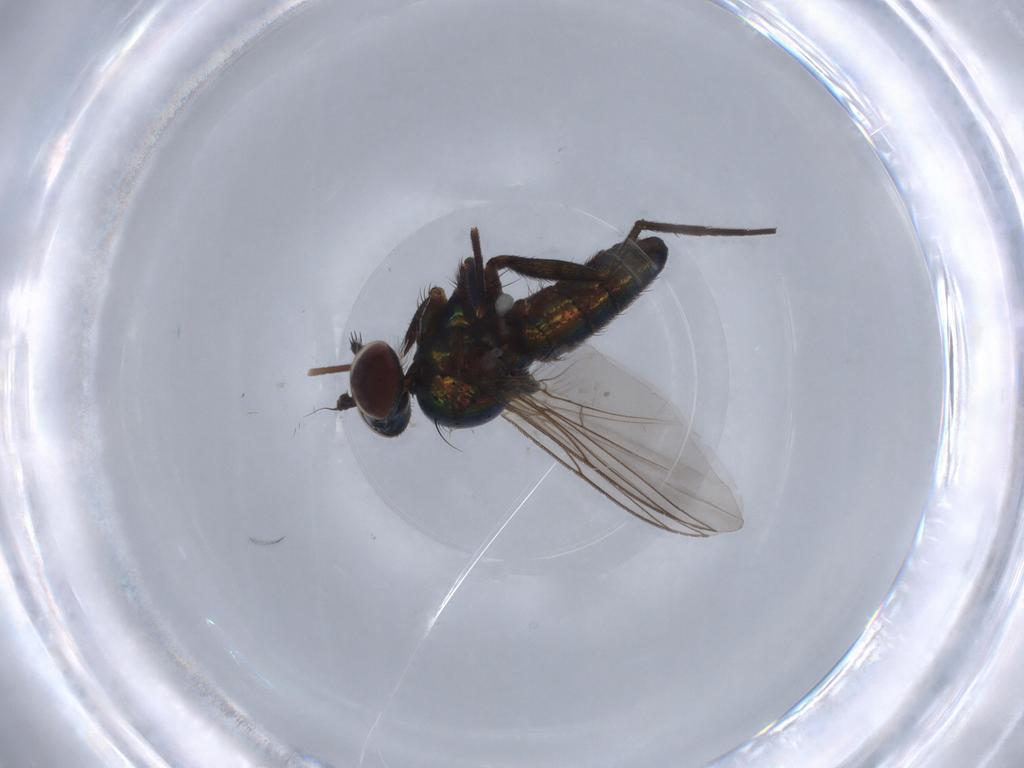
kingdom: Animalia
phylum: Arthropoda
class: Insecta
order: Diptera
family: Dolichopodidae
